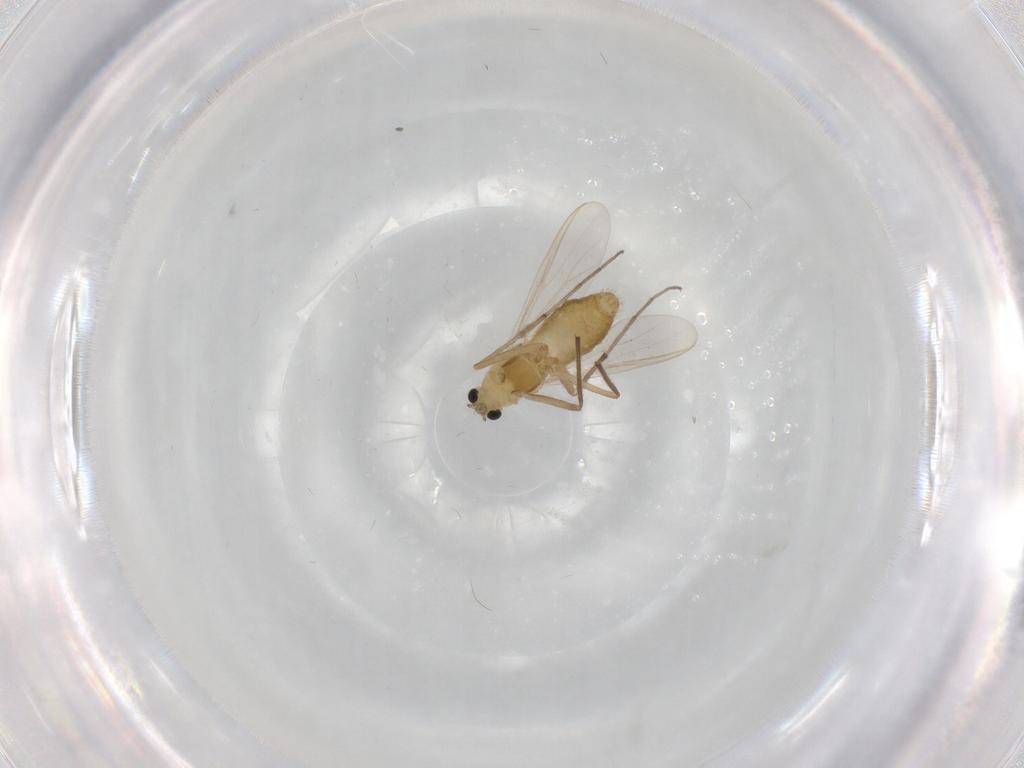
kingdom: Animalia
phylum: Arthropoda
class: Insecta
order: Diptera
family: Chironomidae
